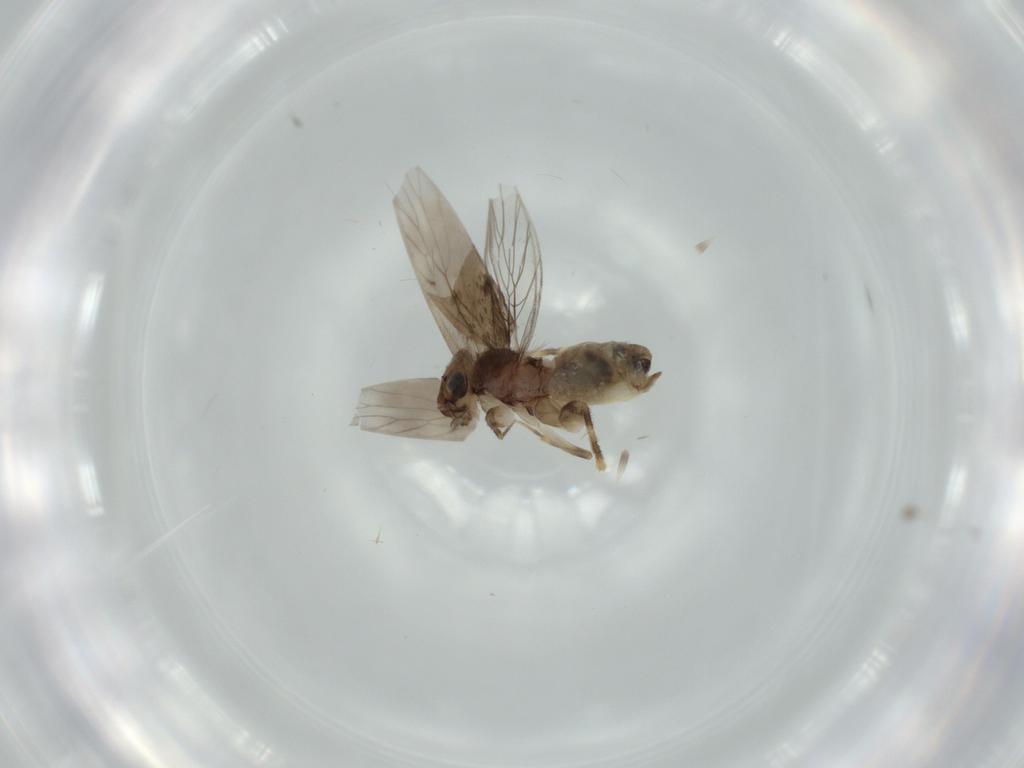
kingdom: Animalia
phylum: Arthropoda
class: Insecta
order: Psocodea
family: Lepidopsocidae
